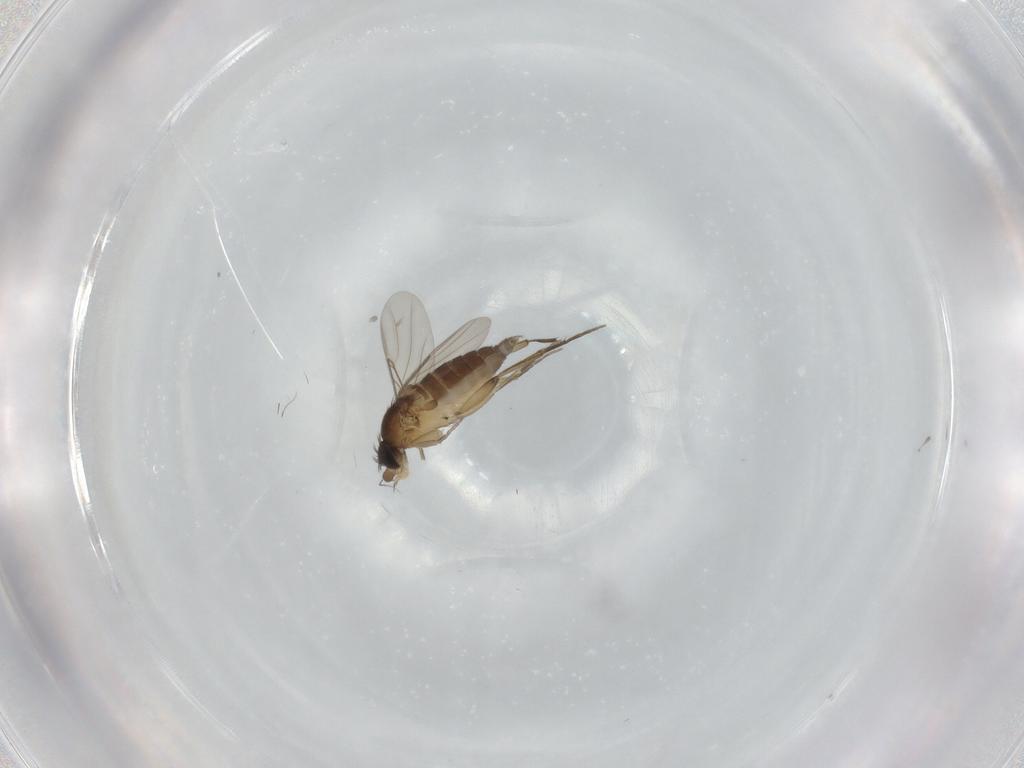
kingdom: Animalia
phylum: Arthropoda
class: Insecta
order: Diptera
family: Phoridae
